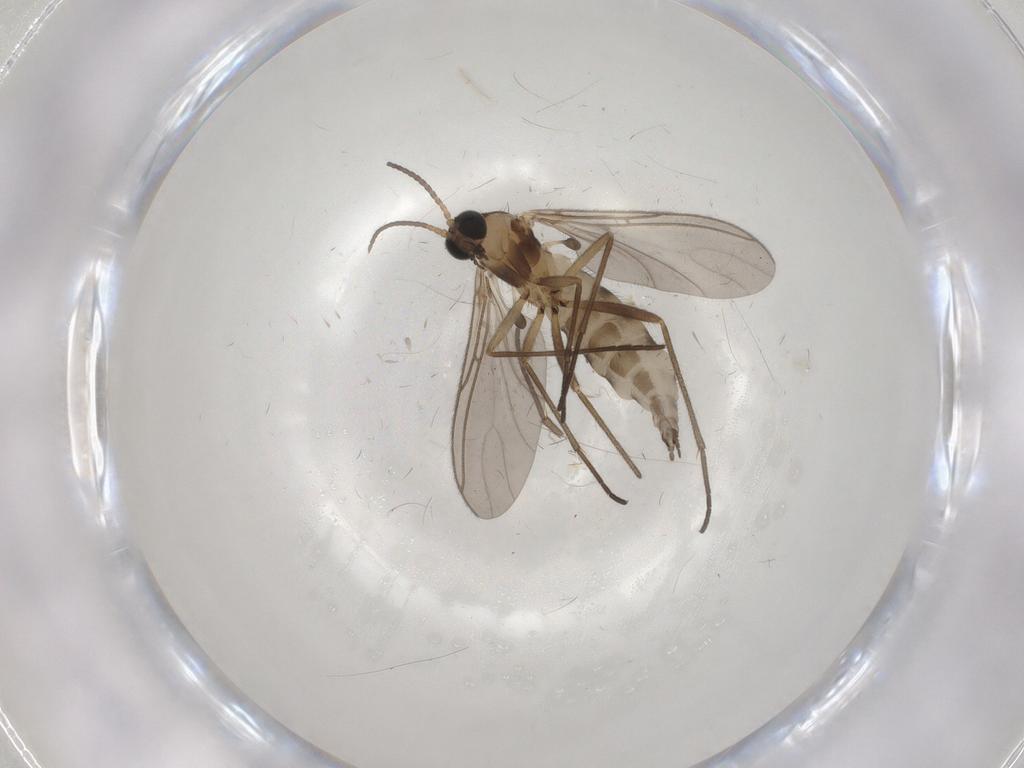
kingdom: Animalia
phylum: Arthropoda
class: Insecta
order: Diptera
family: Sciaridae
